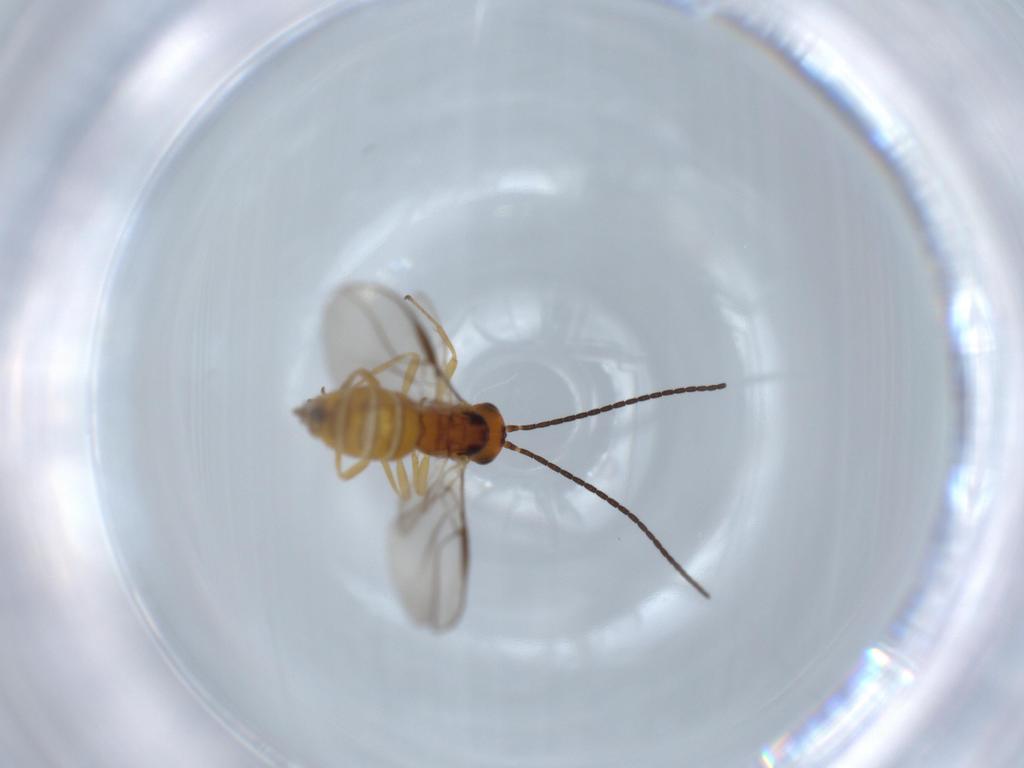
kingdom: Animalia
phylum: Arthropoda
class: Insecta
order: Hymenoptera
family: Braconidae
